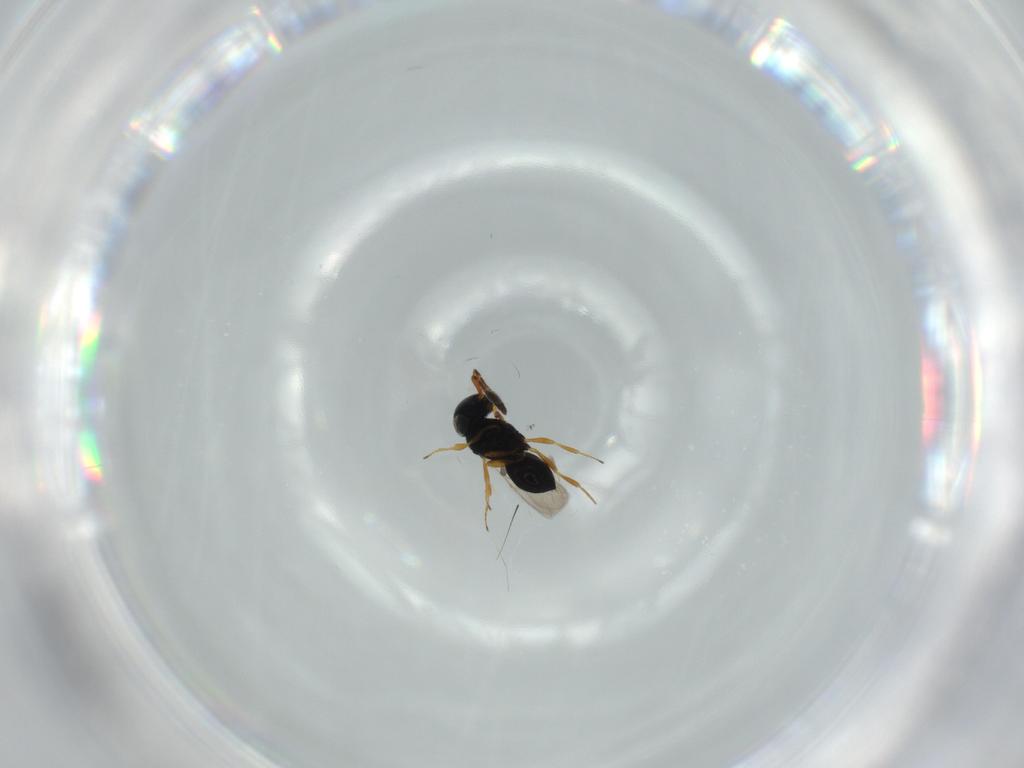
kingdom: Animalia
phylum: Arthropoda
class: Insecta
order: Hymenoptera
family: Scelionidae
